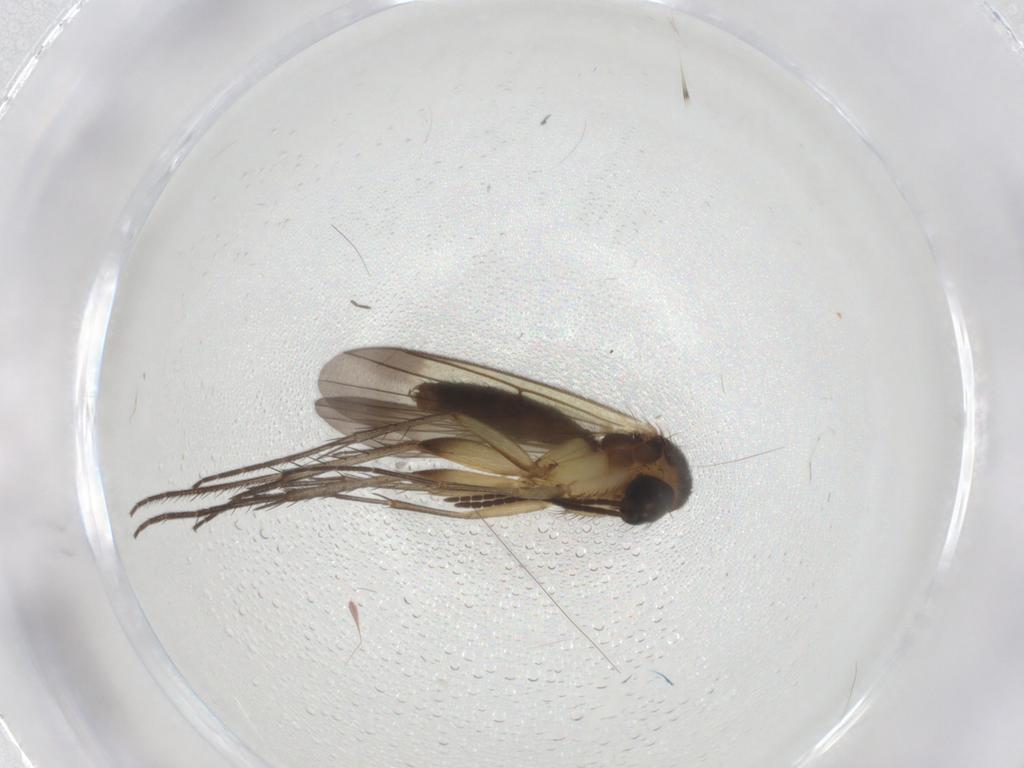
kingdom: Animalia
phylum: Arthropoda
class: Insecta
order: Diptera
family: Mycetophilidae
